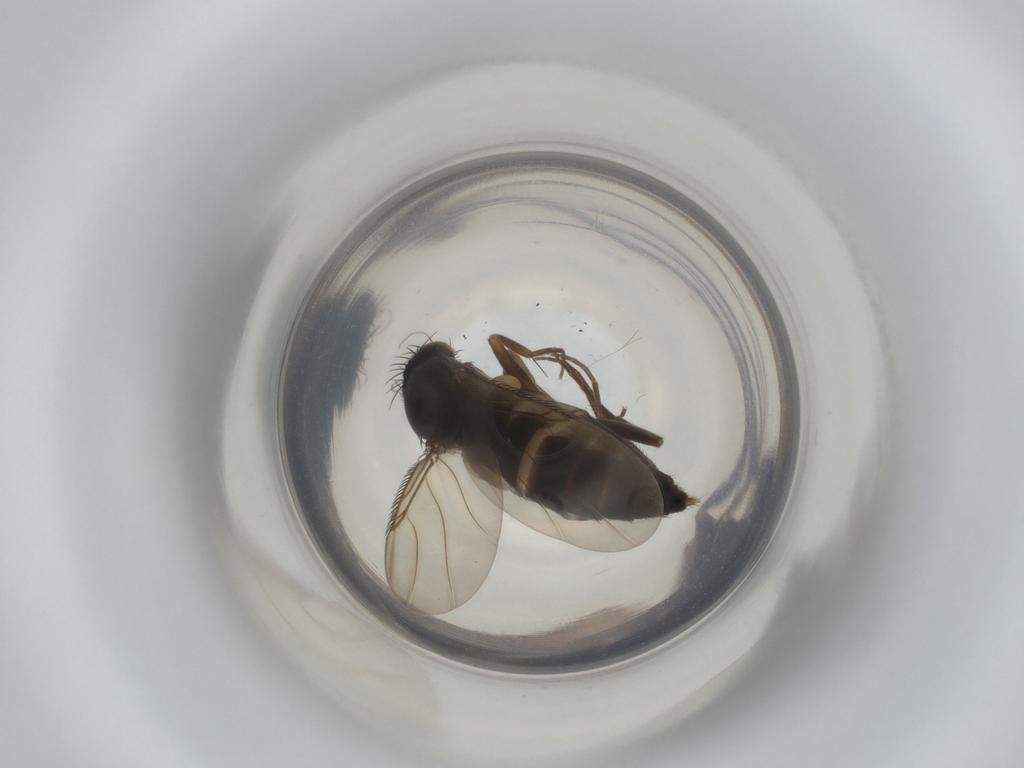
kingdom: Animalia
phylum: Arthropoda
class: Insecta
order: Diptera
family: Phoridae
